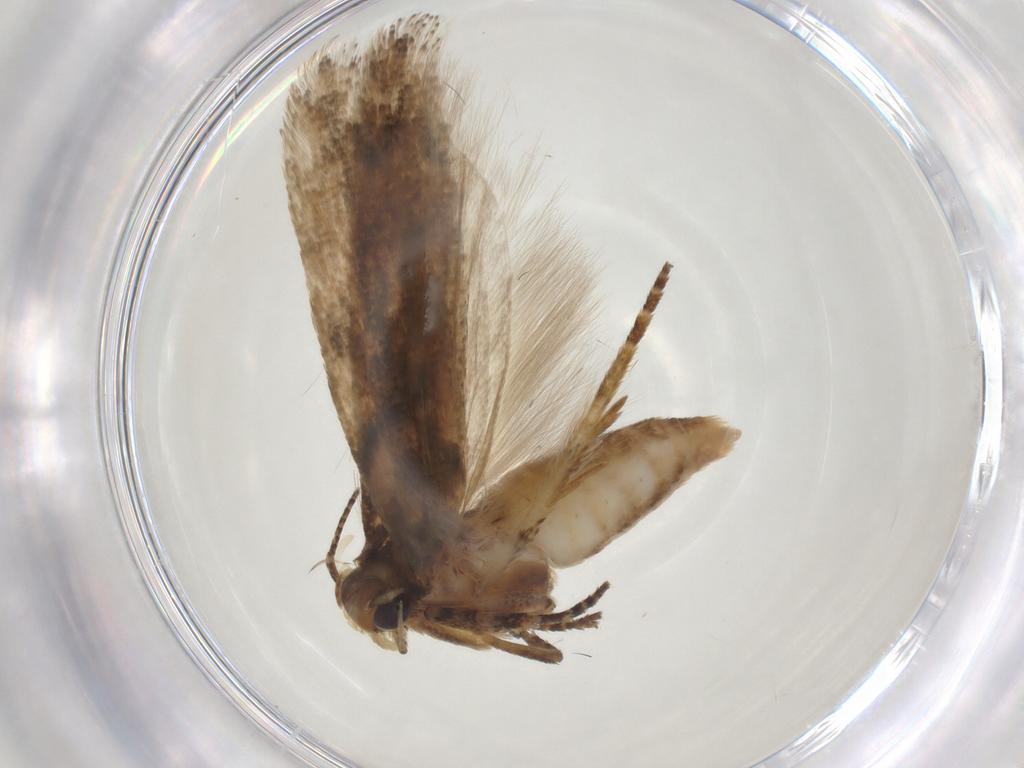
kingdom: Animalia
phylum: Arthropoda
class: Insecta
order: Lepidoptera
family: Gelechiidae
